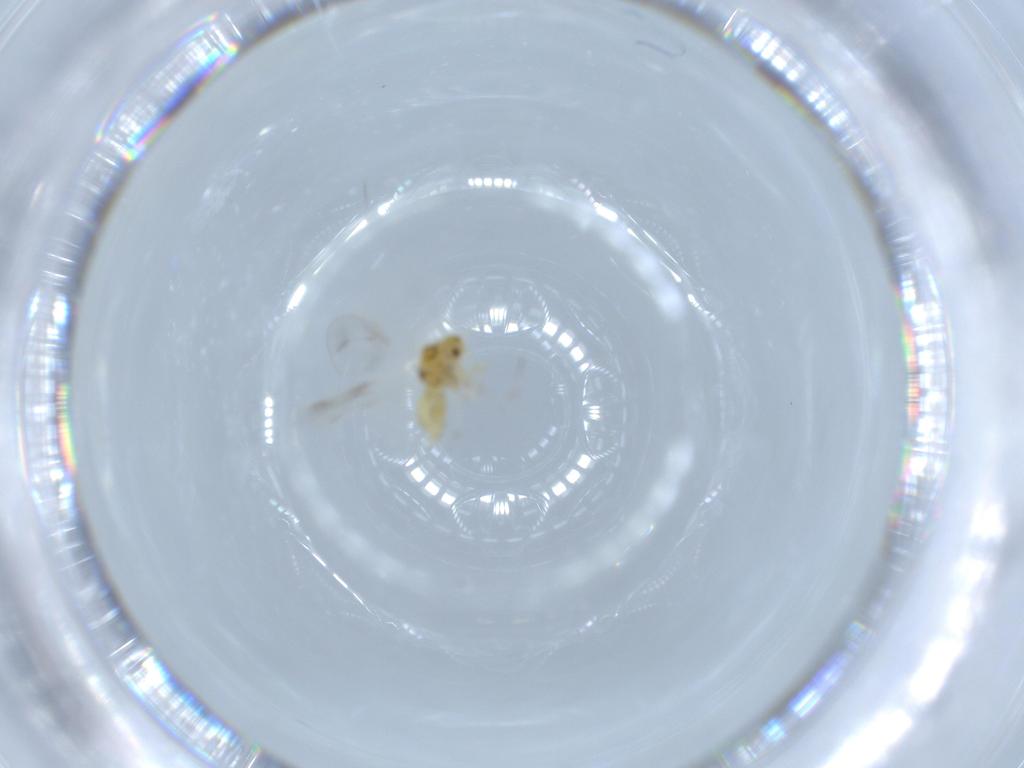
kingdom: Animalia
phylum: Arthropoda
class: Insecta
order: Hemiptera
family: Aleyrodidae
